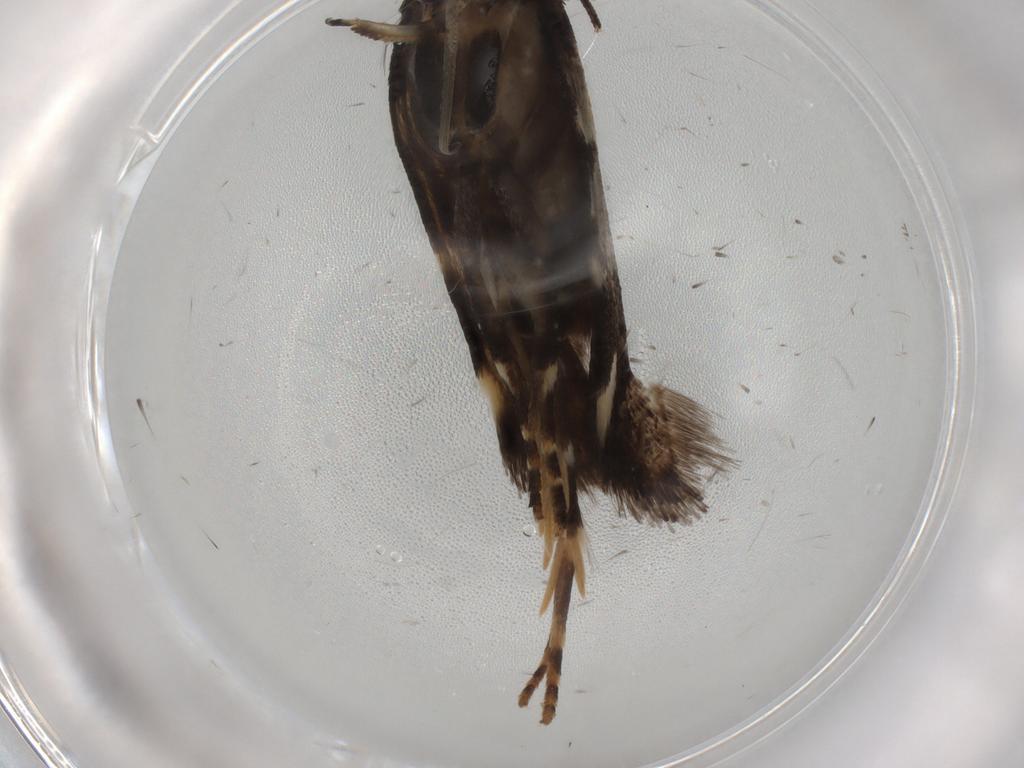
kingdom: Animalia
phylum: Arthropoda
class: Insecta
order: Lepidoptera
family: Gelechiidae
